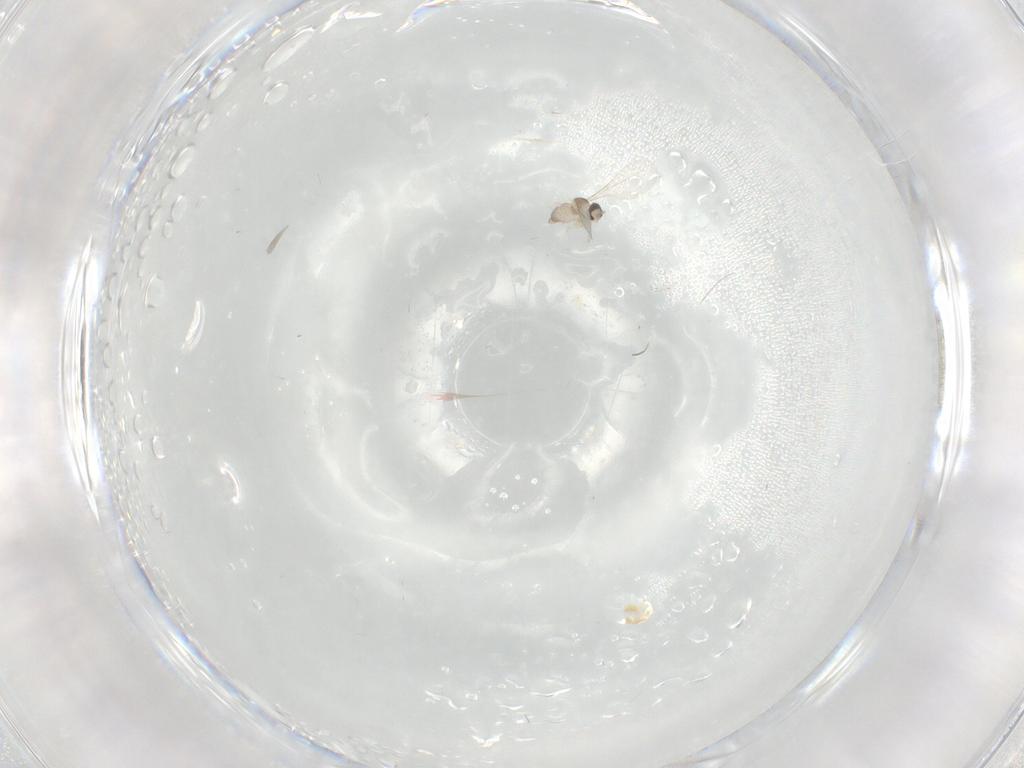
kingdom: Animalia
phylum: Arthropoda
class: Insecta
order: Diptera
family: Cecidomyiidae
